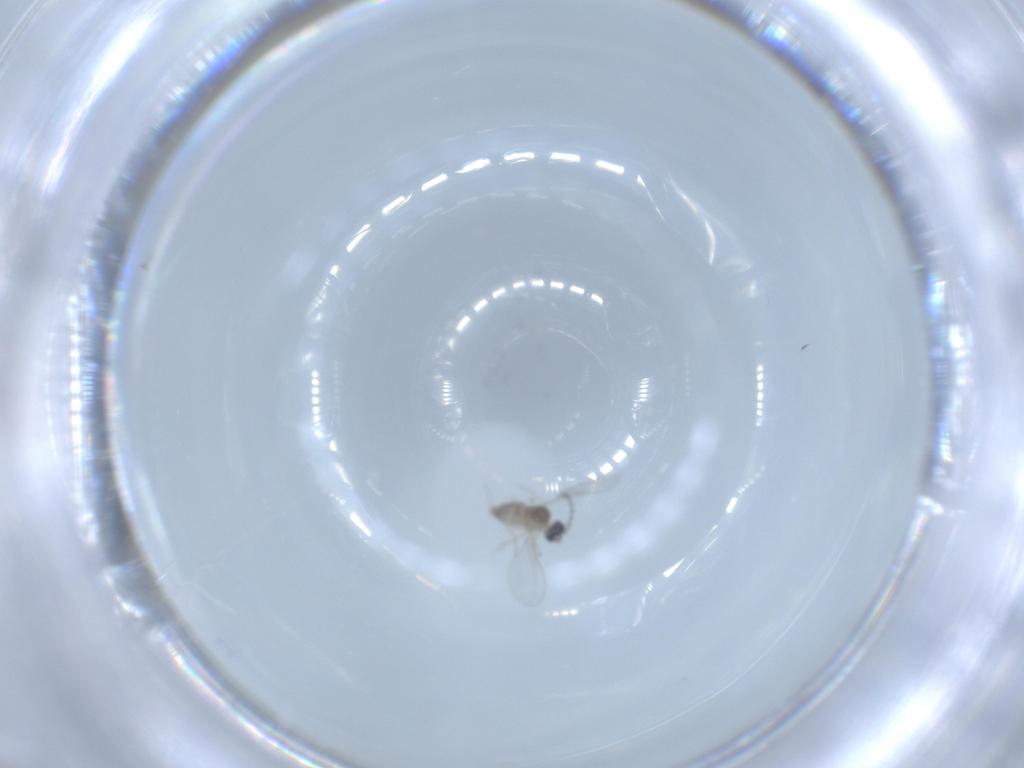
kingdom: Animalia
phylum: Arthropoda
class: Insecta
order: Diptera
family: Cecidomyiidae
